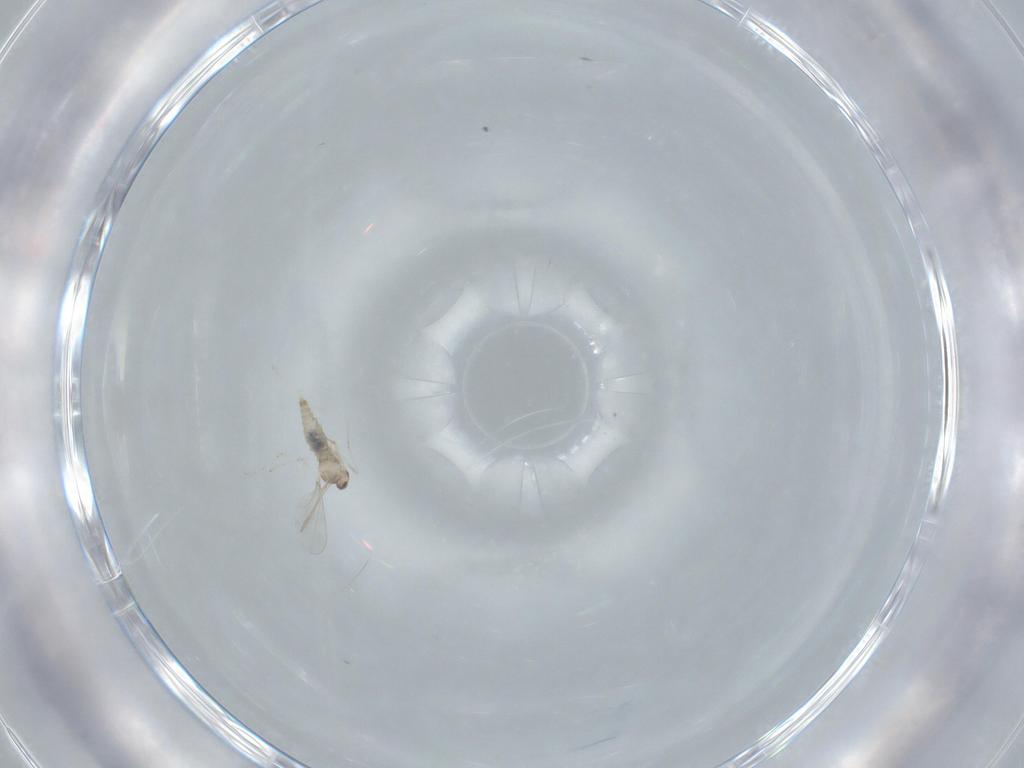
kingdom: Animalia
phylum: Arthropoda
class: Insecta
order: Diptera
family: Cecidomyiidae
